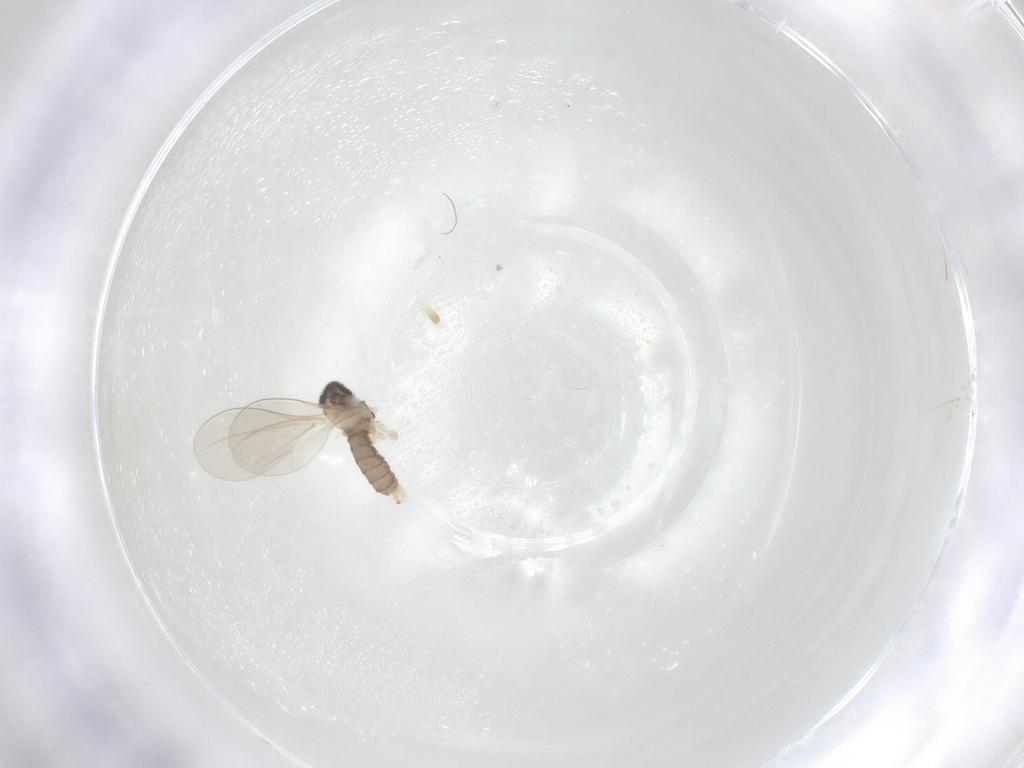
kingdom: Animalia
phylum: Arthropoda
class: Insecta
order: Diptera
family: Cecidomyiidae
